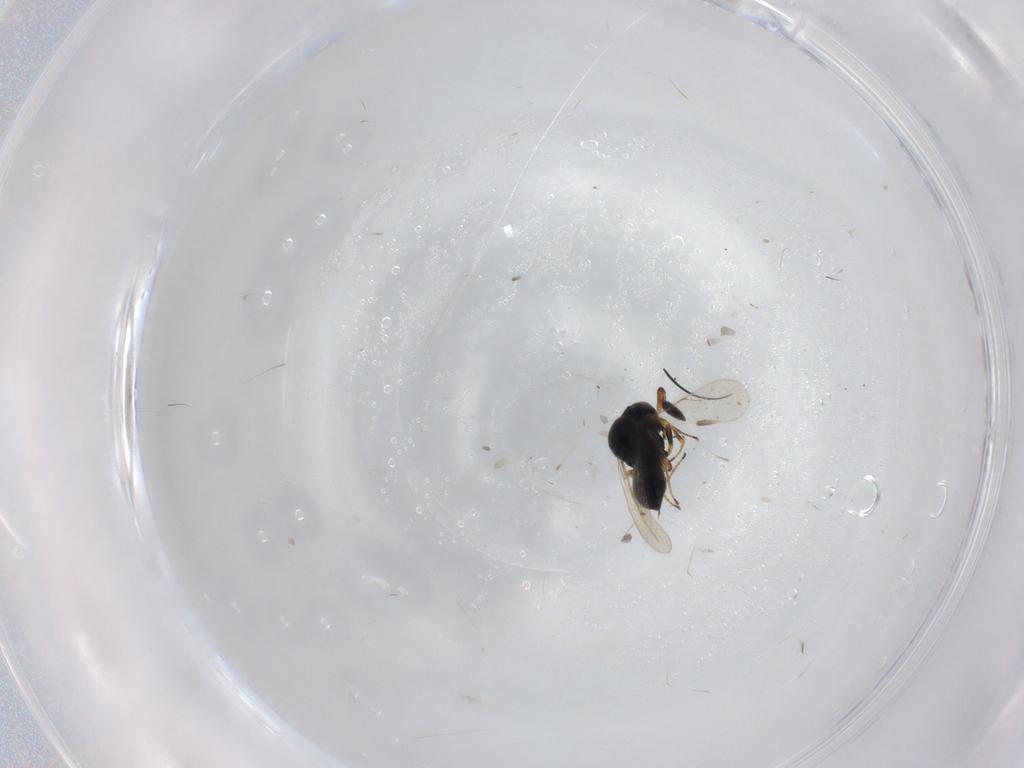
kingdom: Animalia
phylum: Arthropoda
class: Insecta
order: Hymenoptera
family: Scelionidae
